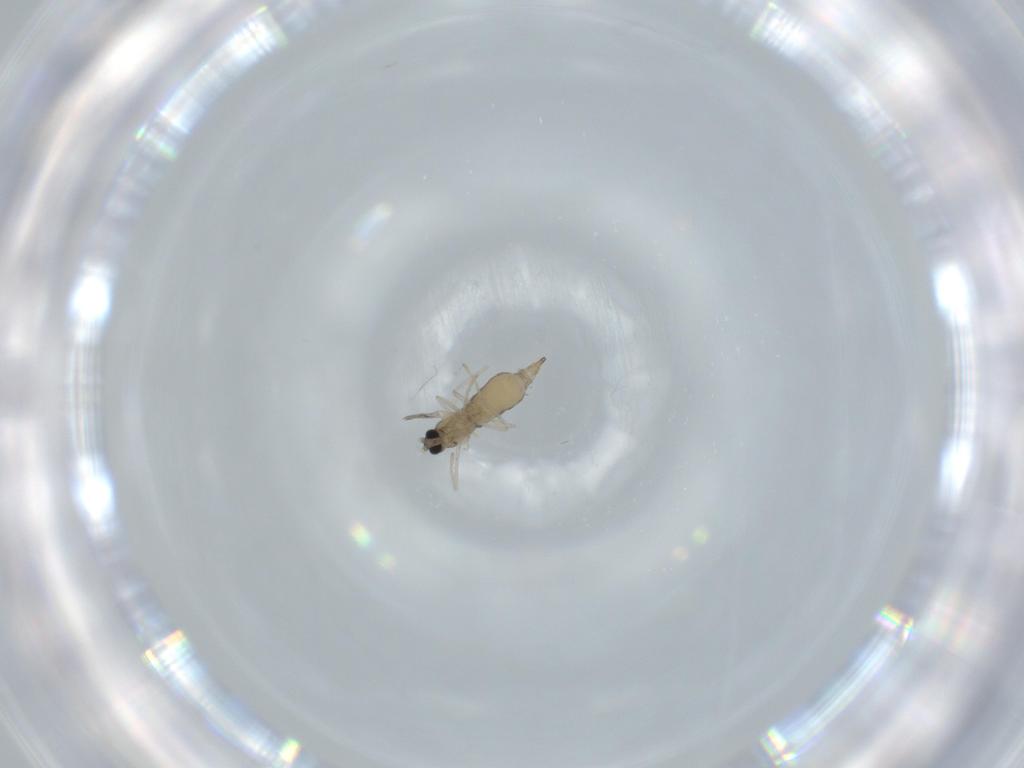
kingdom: Animalia
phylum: Arthropoda
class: Insecta
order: Diptera
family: Cecidomyiidae
